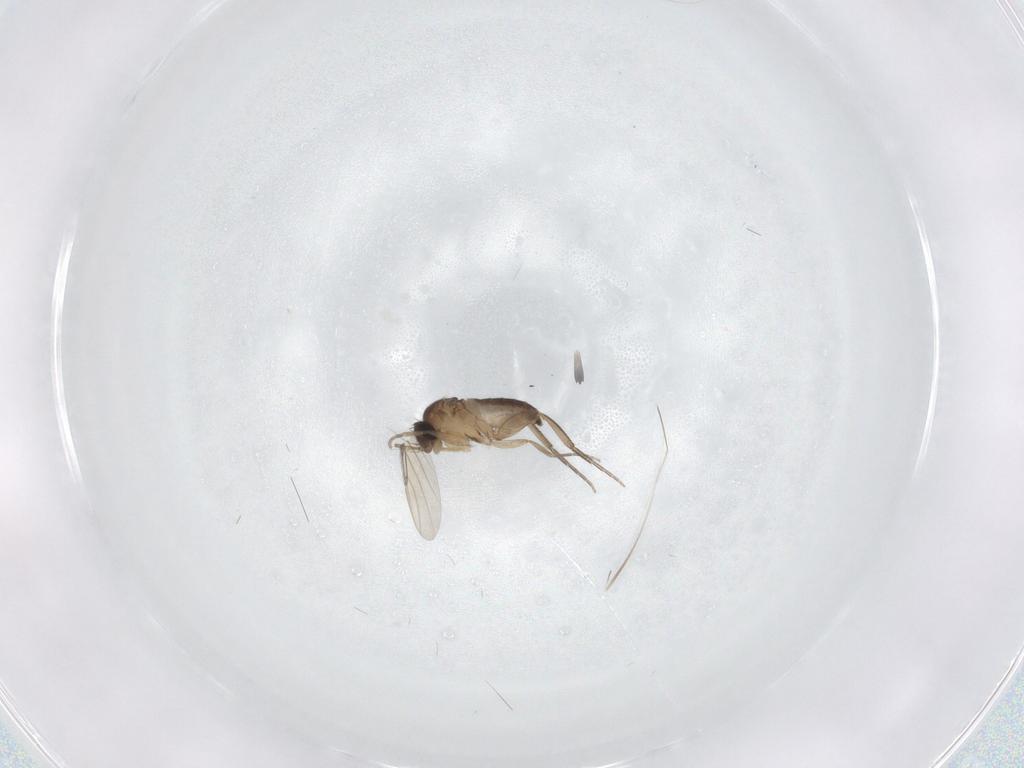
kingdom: Animalia
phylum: Arthropoda
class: Insecta
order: Diptera
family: Phoridae
